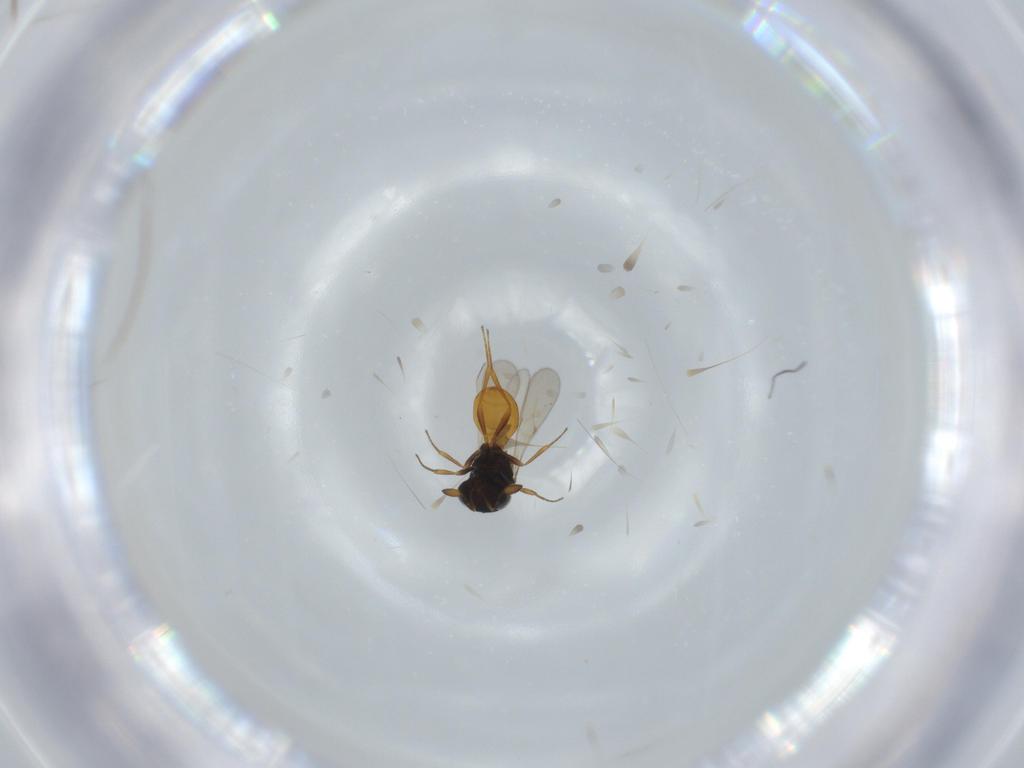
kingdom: Animalia
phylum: Arthropoda
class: Insecta
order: Hymenoptera
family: Scelionidae
